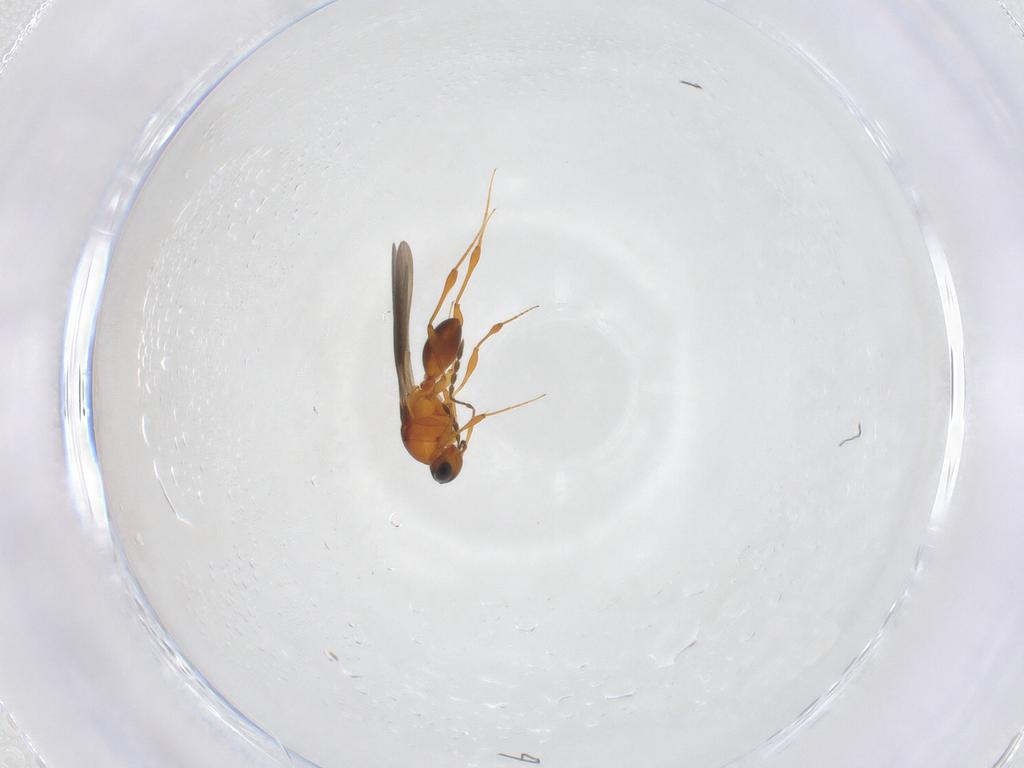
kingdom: Animalia
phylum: Arthropoda
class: Insecta
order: Hymenoptera
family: Platygastridae
